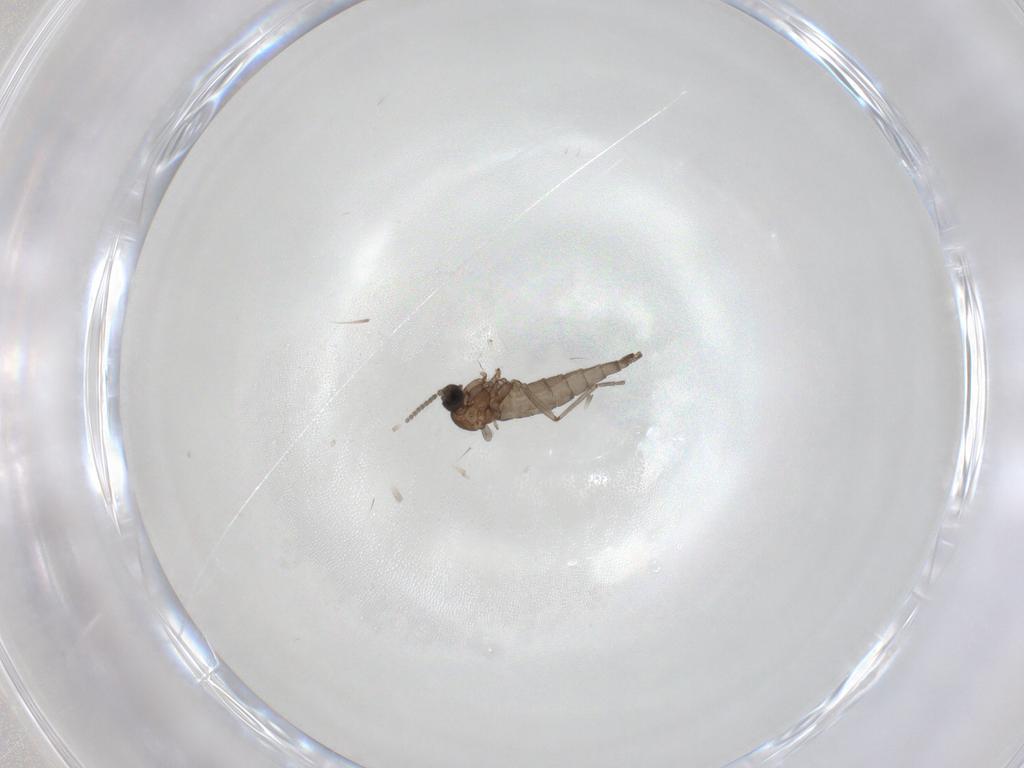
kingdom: Animalia
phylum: Arthropoda
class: Insecta
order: Diptera
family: Sciaridae
